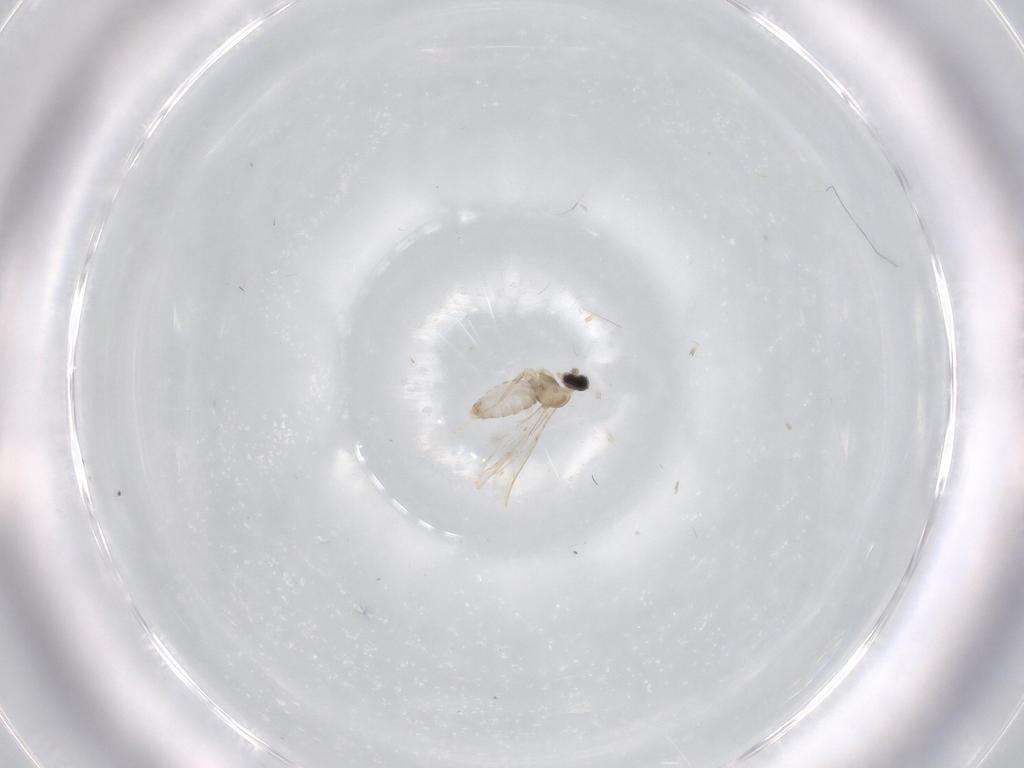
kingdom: Animalia
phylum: Arthropoda
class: Insecta
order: Diptera
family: Cecidomyiidae
